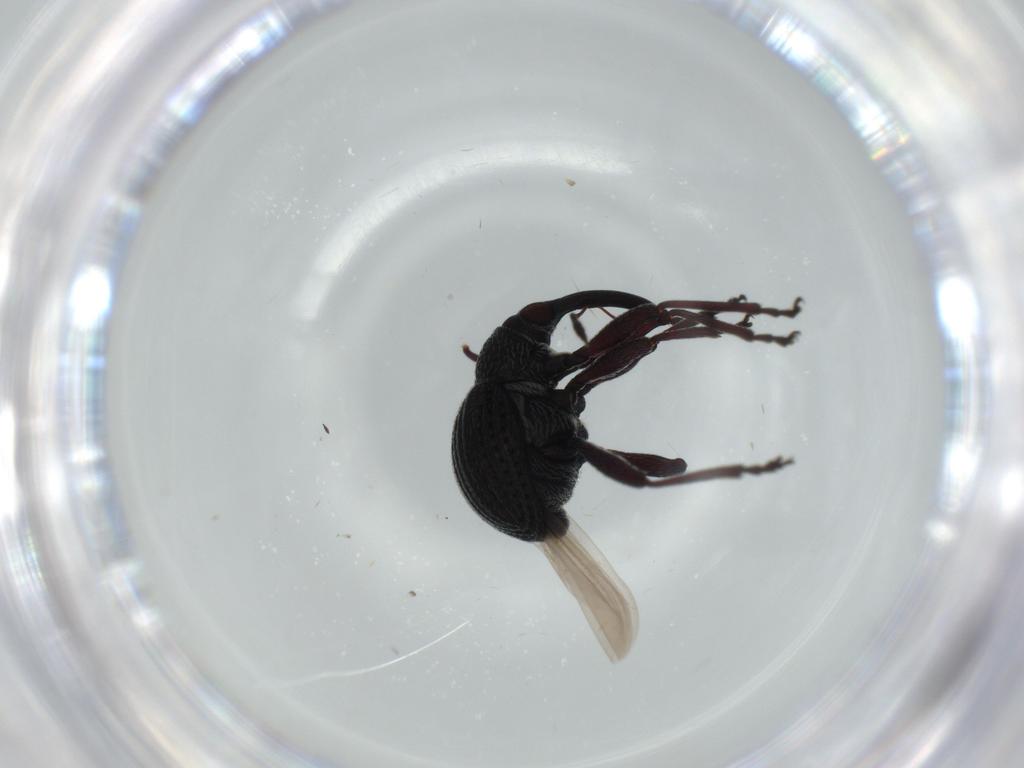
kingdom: Animalia
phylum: Arthropoda
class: Insecta
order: Coleoptera
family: Brentidae
